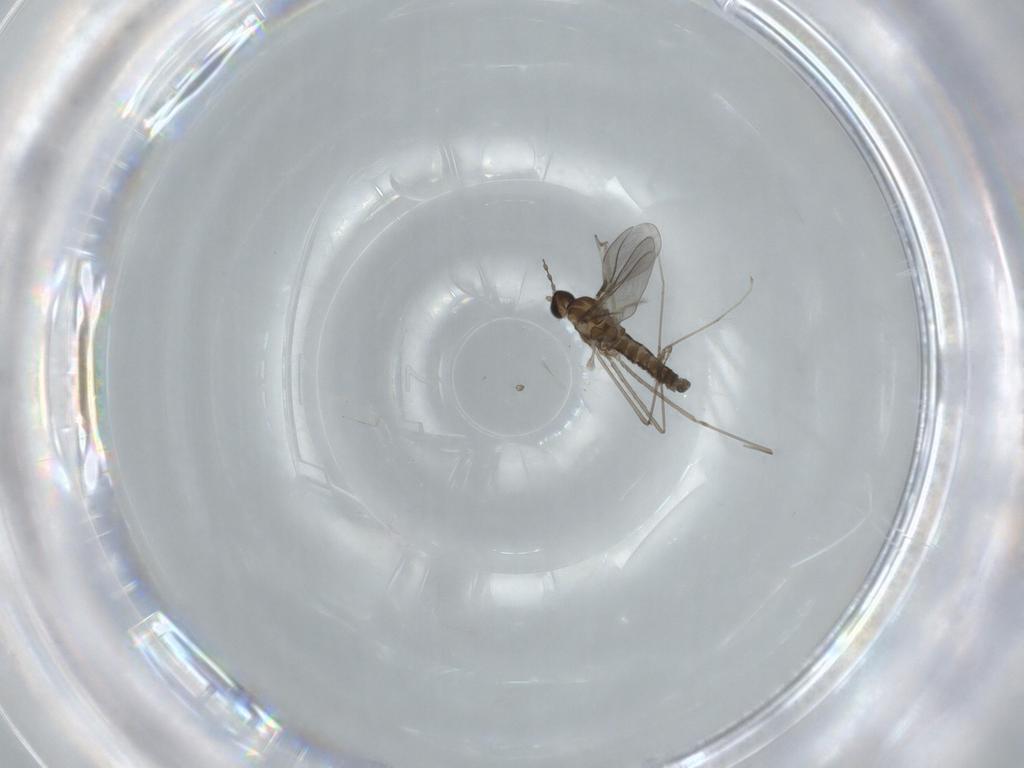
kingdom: Animalia
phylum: Arthropoda
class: Insecta
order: Diptera
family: Cecidomyiidae
